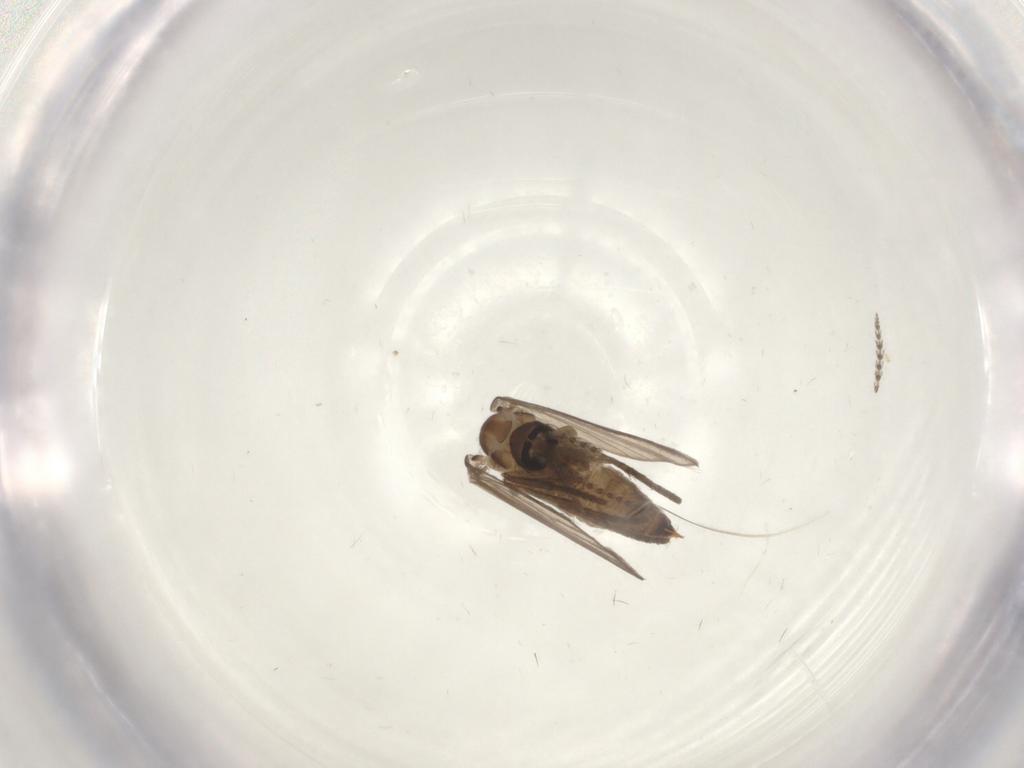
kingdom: Animalia
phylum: Arthropoda
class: Insecta
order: Diptera
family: Psychodidae
